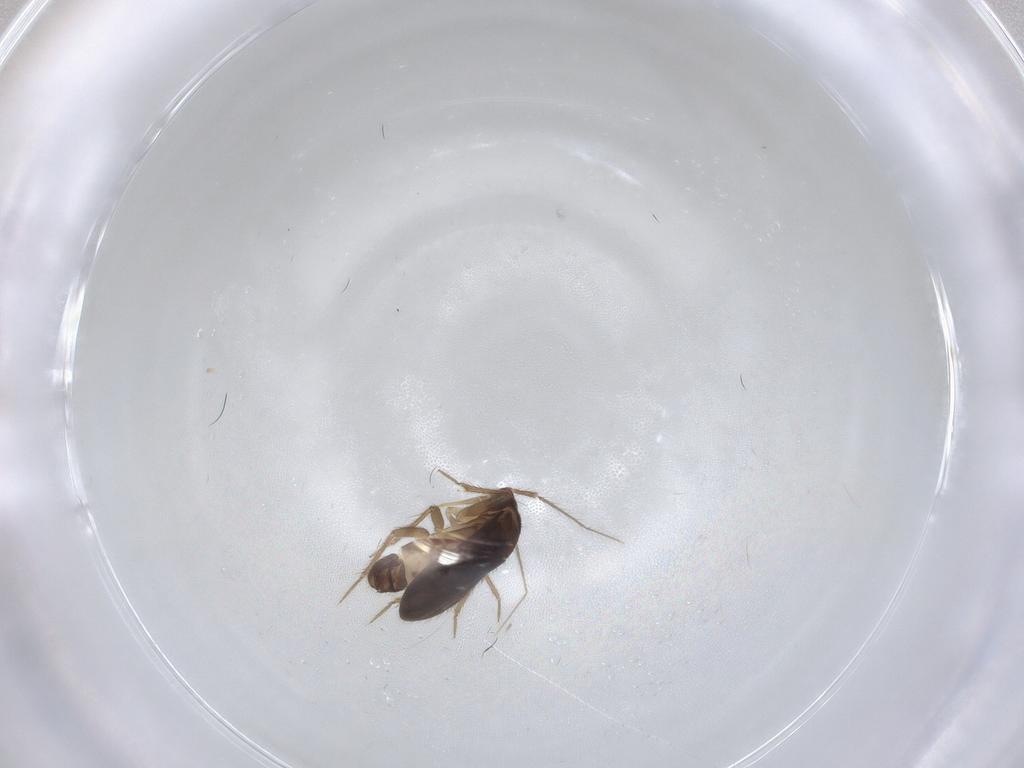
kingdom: Animalia
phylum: Arthropoda
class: Insecta
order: Hemiptera
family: Ceratocombidae
